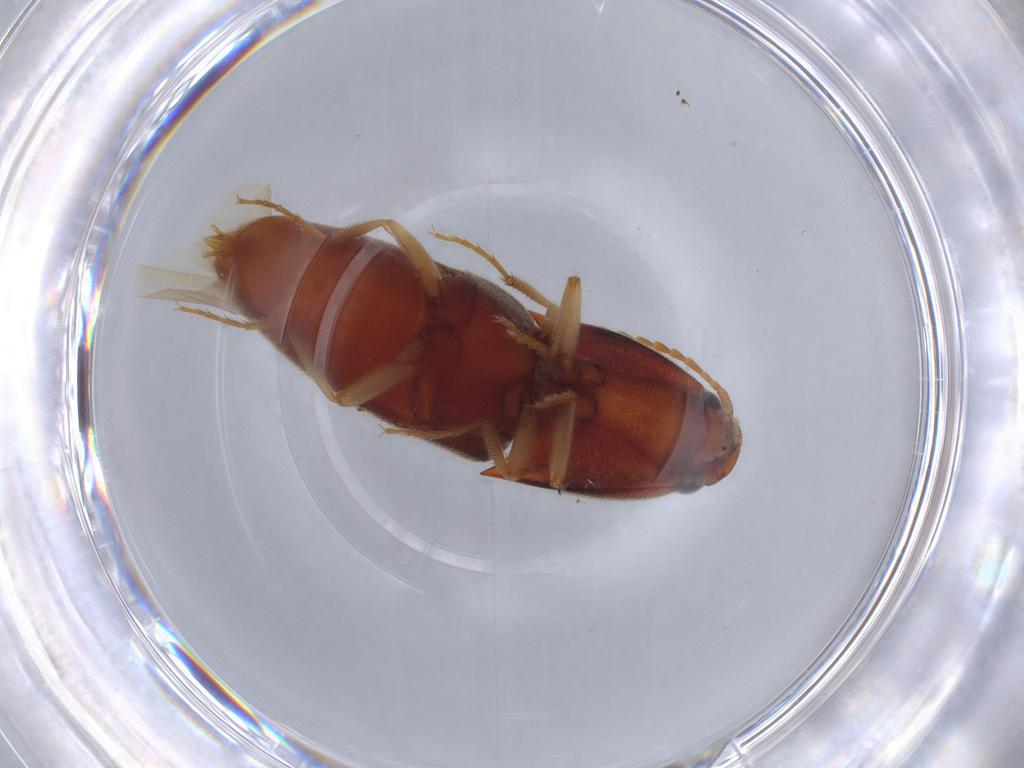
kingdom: Animalia
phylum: Arthropoda
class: Insecta
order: Coleoptera
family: Elateridae
